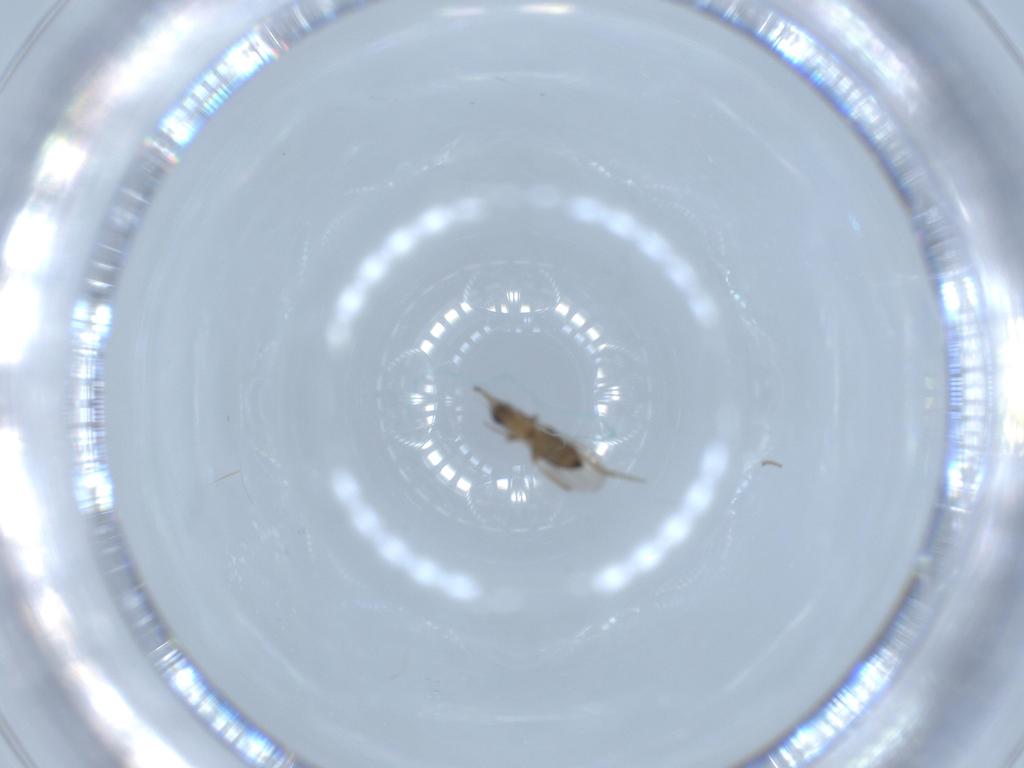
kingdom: Animalia
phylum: Arthropoda
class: Insecta
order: Diptera
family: Phoridae
